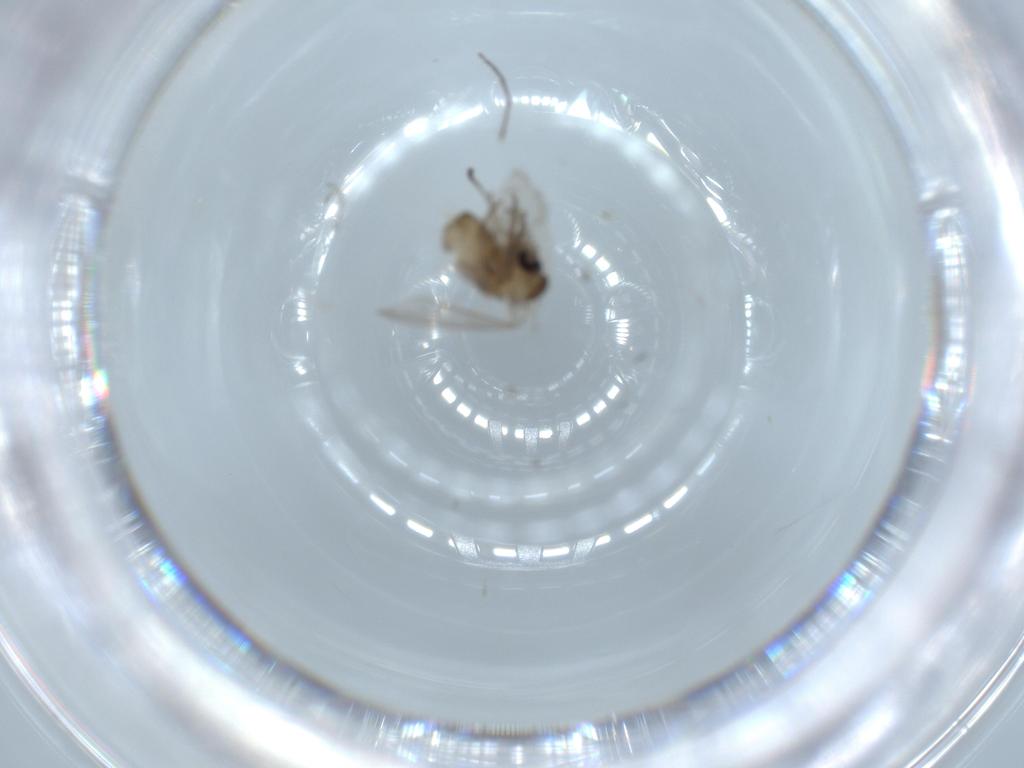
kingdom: Animalia
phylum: Arthropoda
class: Insecta
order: Diptera
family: Psychodidae
